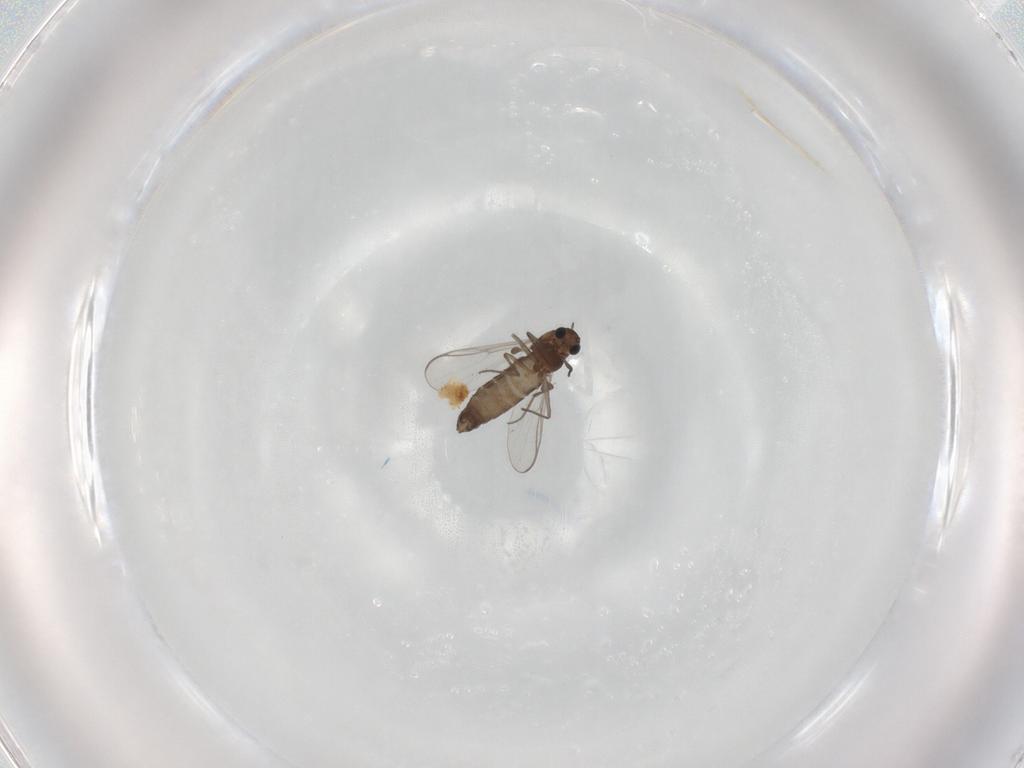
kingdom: Animalia
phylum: Arthropoda
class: Insecta
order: Diptera
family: Chironomidae
